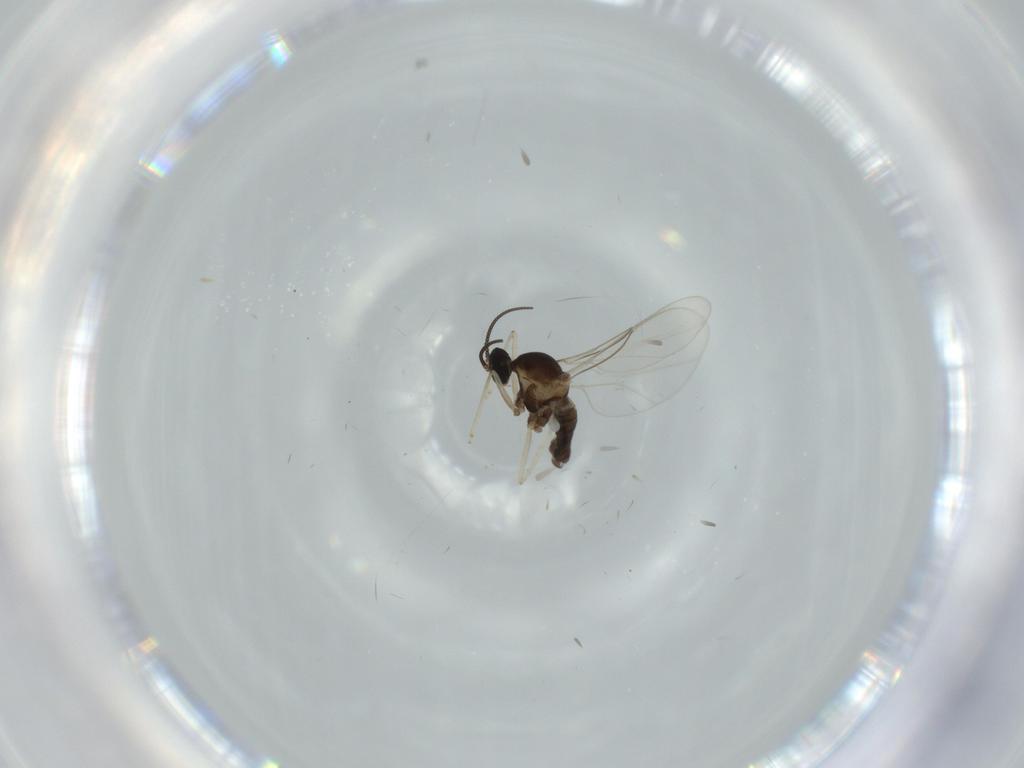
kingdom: Animalia
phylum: Arthropoda
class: Insecta
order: Diptera
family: Cecidomyiidae
